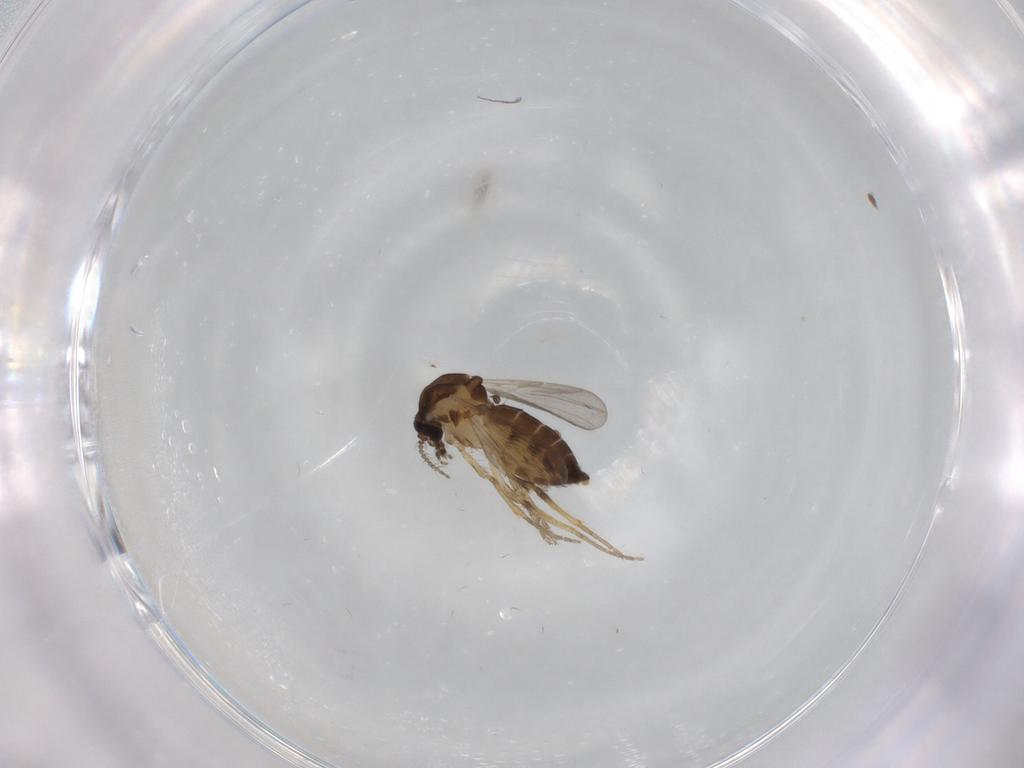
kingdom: Animalia
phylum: Arthropoda
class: Insecta
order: Diptera
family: Ceratopogonidae
